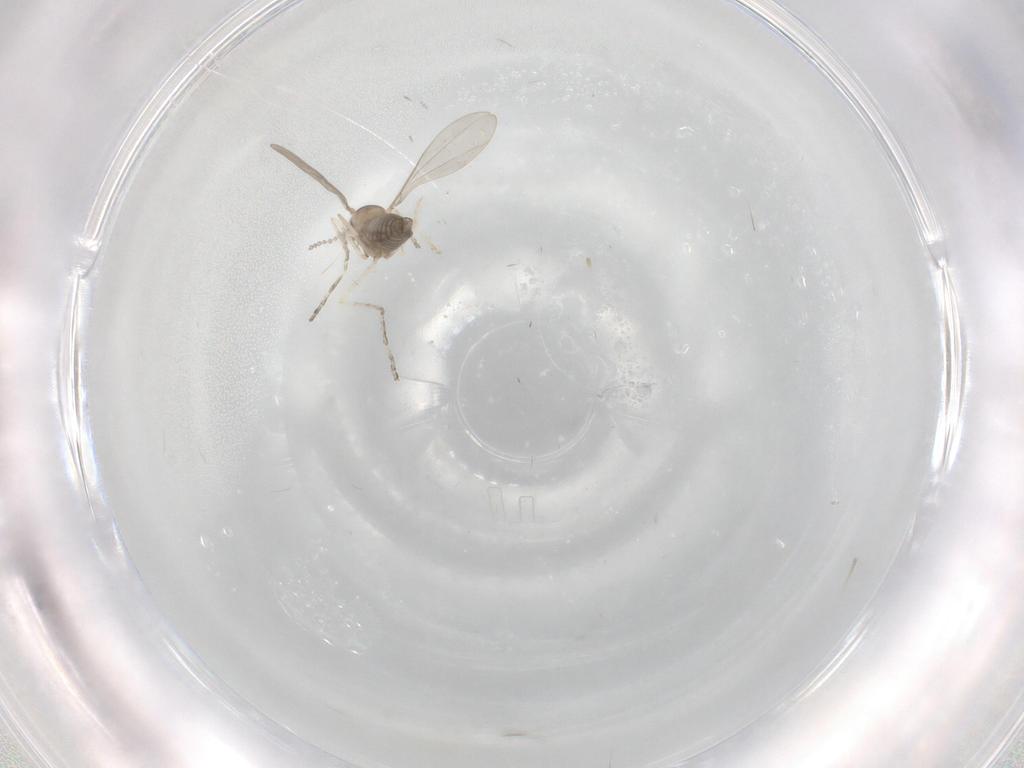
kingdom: Animalia
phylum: Arthropoda
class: Insecta
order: Diptera
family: Cecidomyiidae
